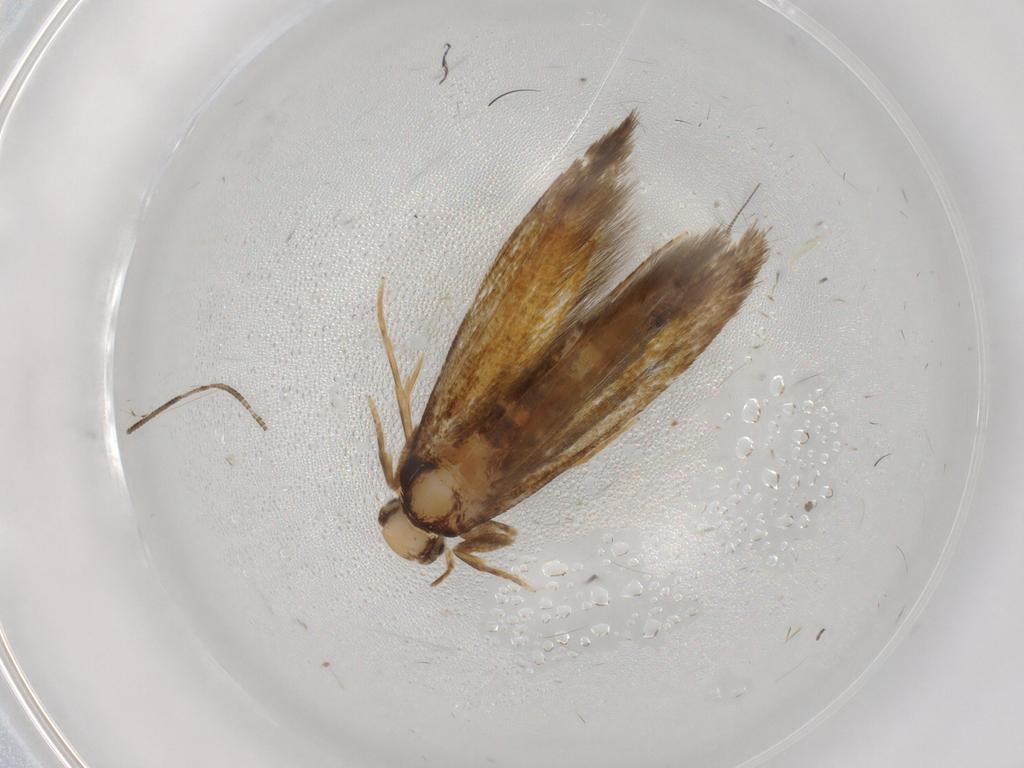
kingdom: Animalia
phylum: Arthropoda
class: Insecta
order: Lepidoptera
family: Tineidae
